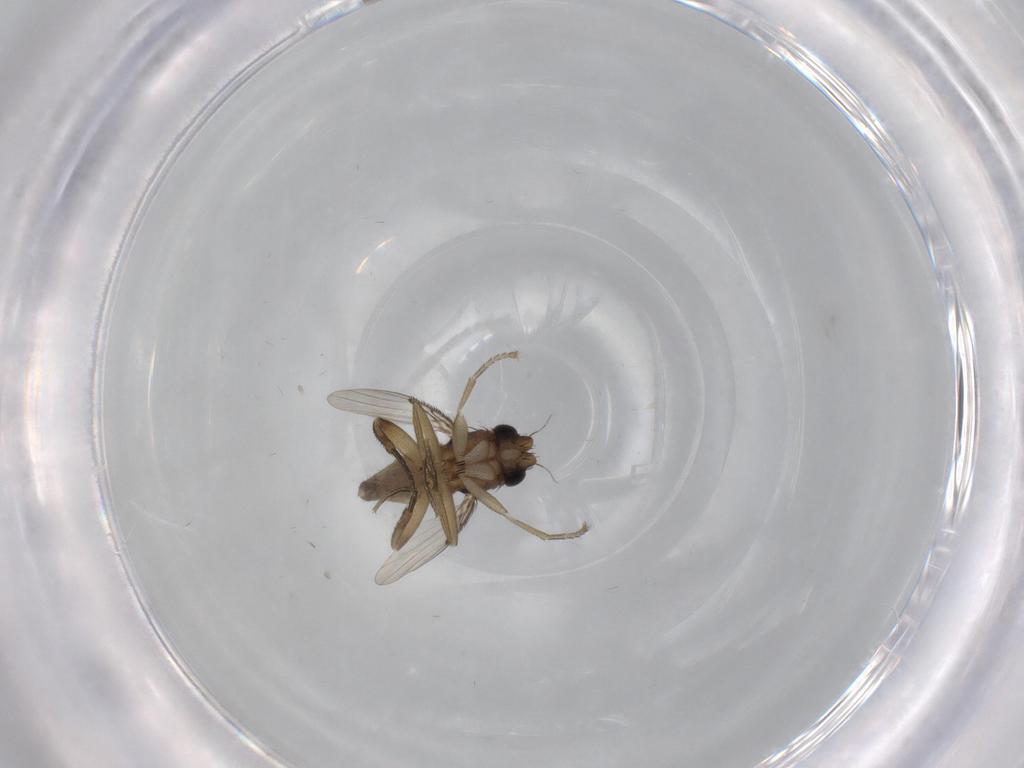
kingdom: Animalia
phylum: Arthropoda
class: Insecta
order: Diptera
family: Phoridae
